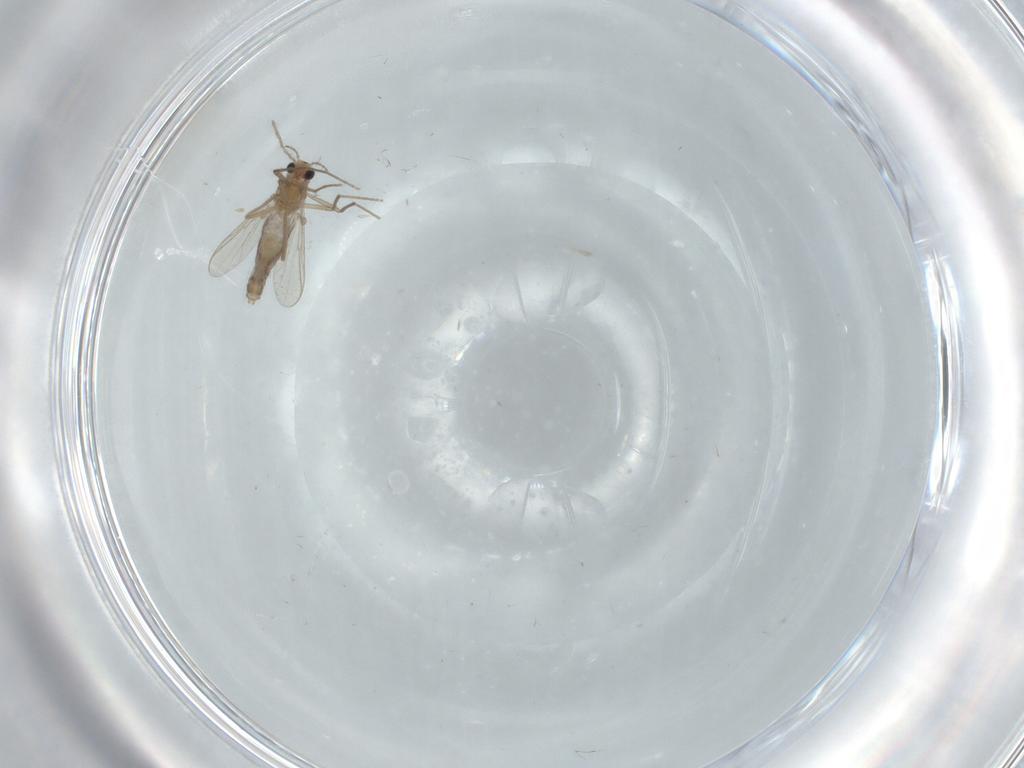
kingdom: Animalia
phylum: Arthropoda
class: Insecta
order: Diptera
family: Chironomidae
